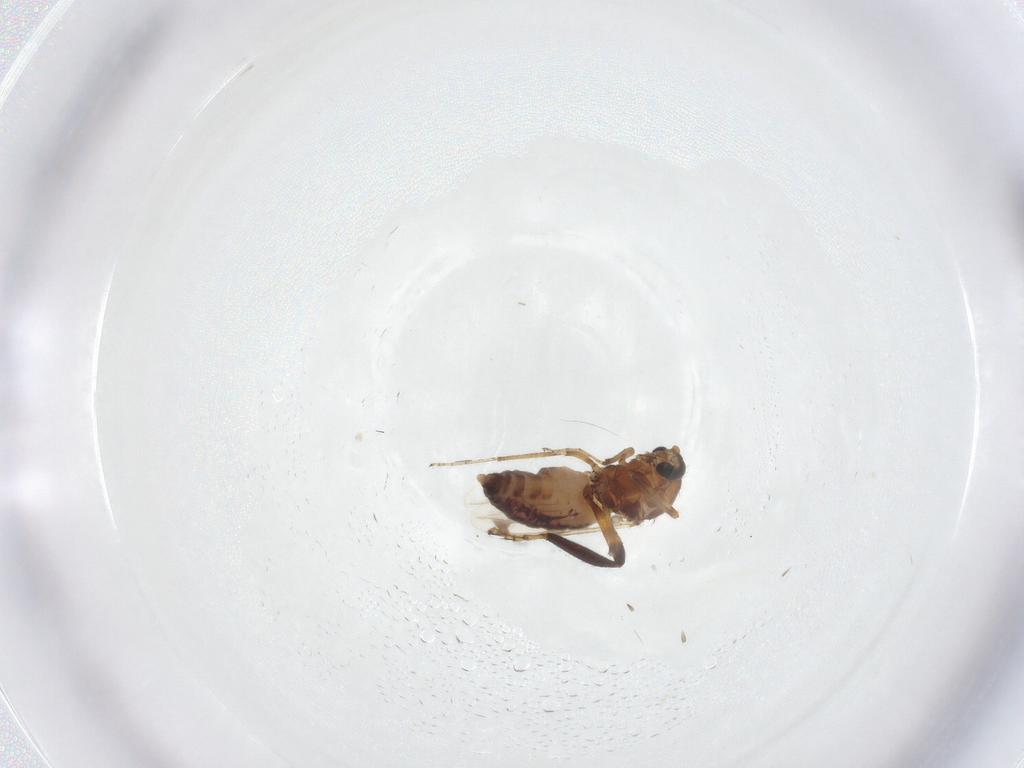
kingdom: Animalia
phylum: Arthropoda
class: Insecta
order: Diptera
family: Ceratopogonidae
